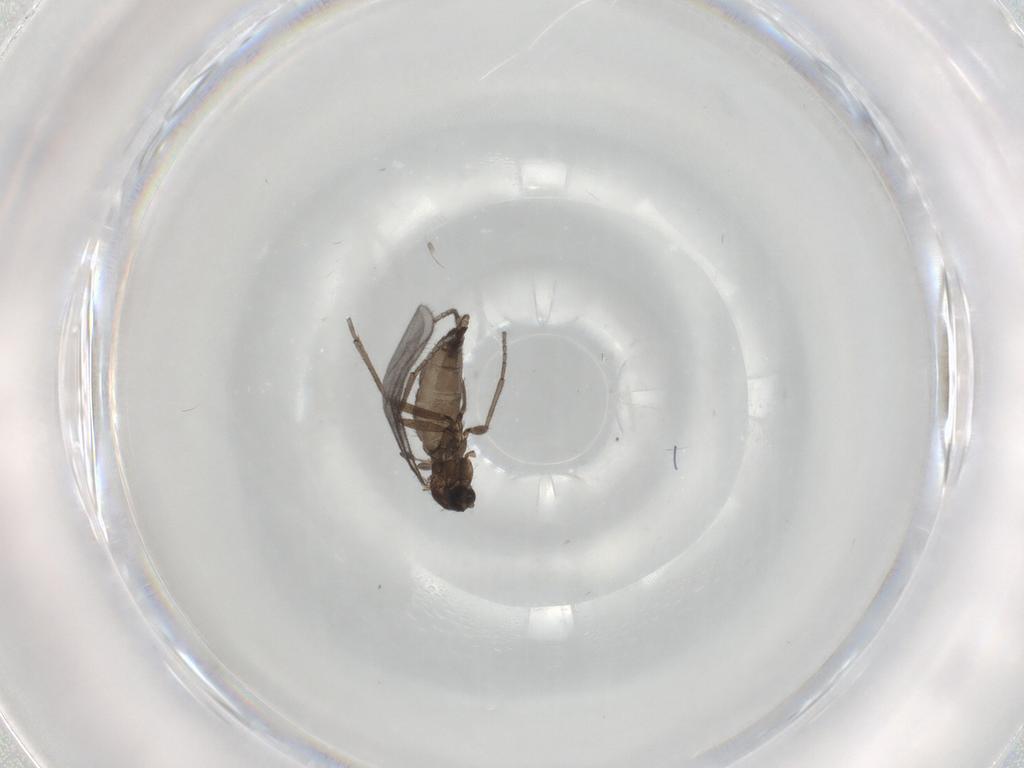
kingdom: Animalia
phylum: Arthropoda
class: Insecta
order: Diptera
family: Sciaridae
